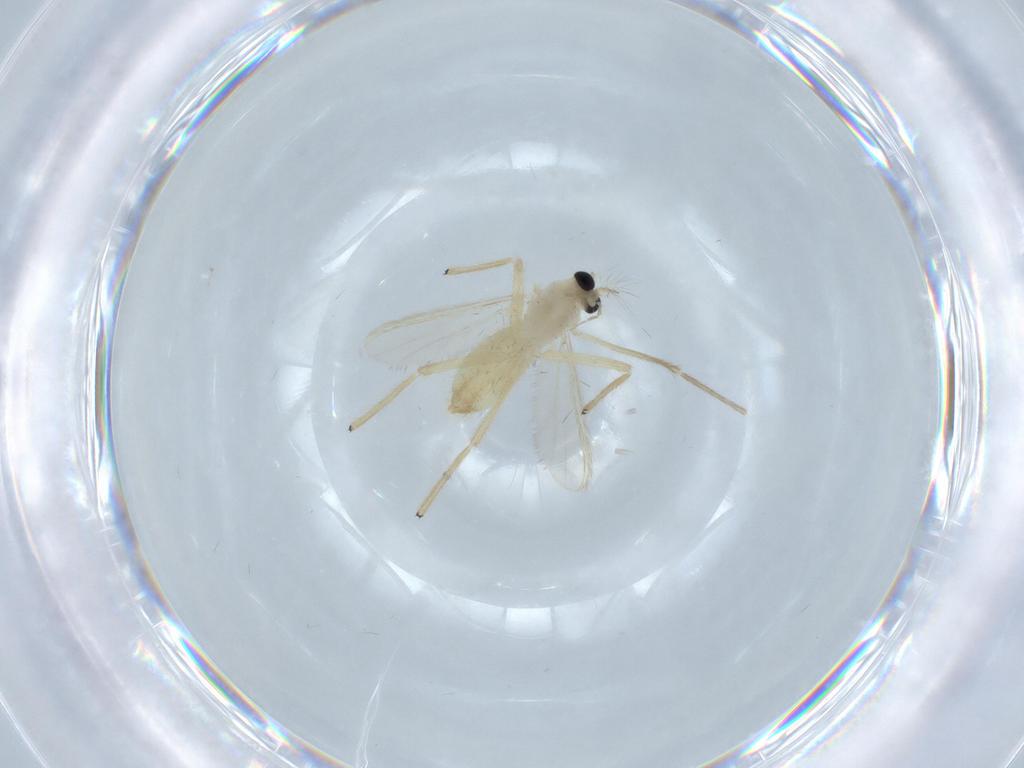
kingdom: Animalia
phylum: Arthropoda
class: Insecta
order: Diptera
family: Chironomidae
